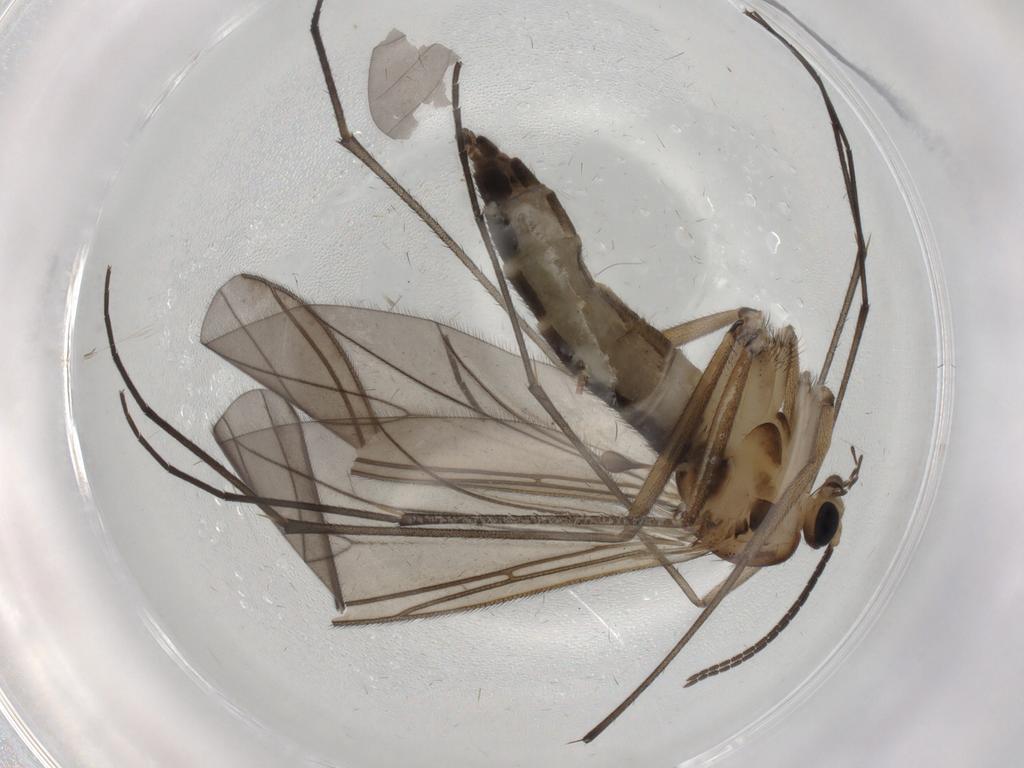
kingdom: Animalia
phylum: Arthropoda
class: Insecta
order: Diptera
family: Sciaridae
